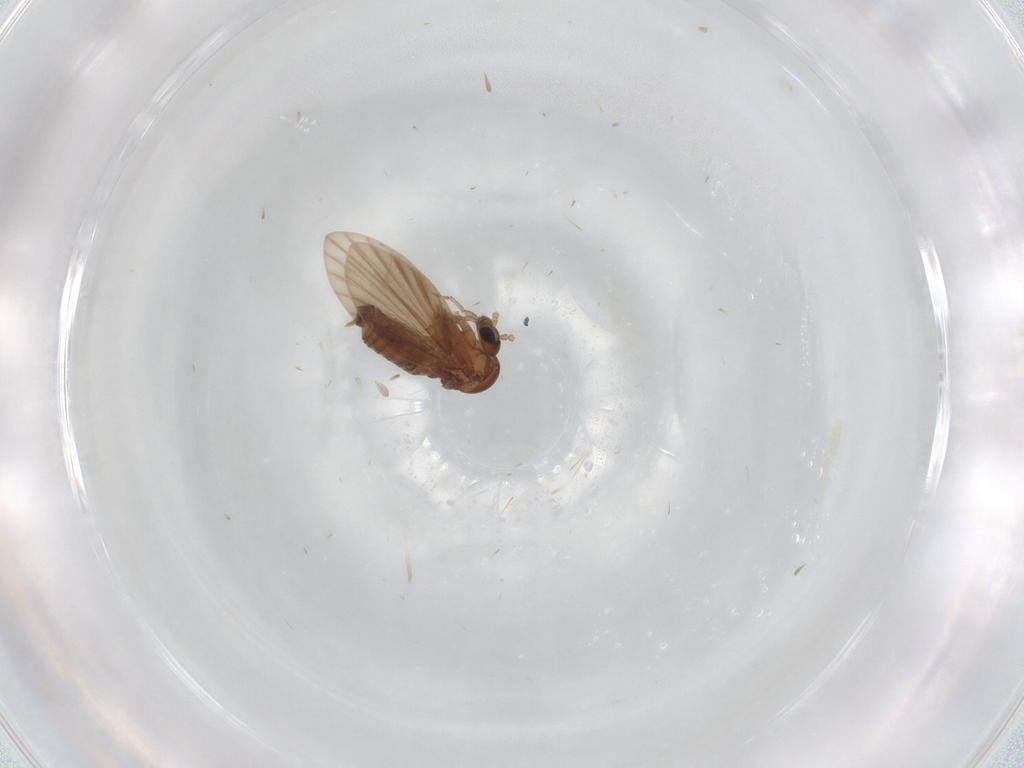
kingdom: Animalia
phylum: Arthropoda
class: Insecta
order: Diptera
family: Psychodidae
